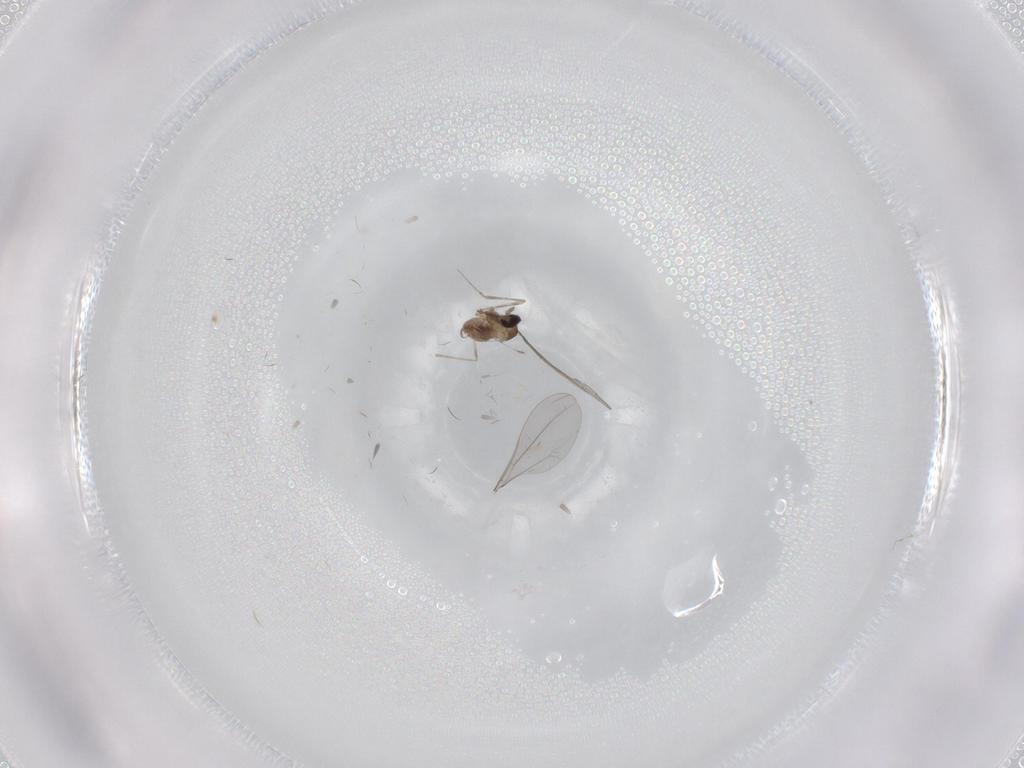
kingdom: Animalia
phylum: Arthropoda
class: Insecta
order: Diptera
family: Mycetophilidae
